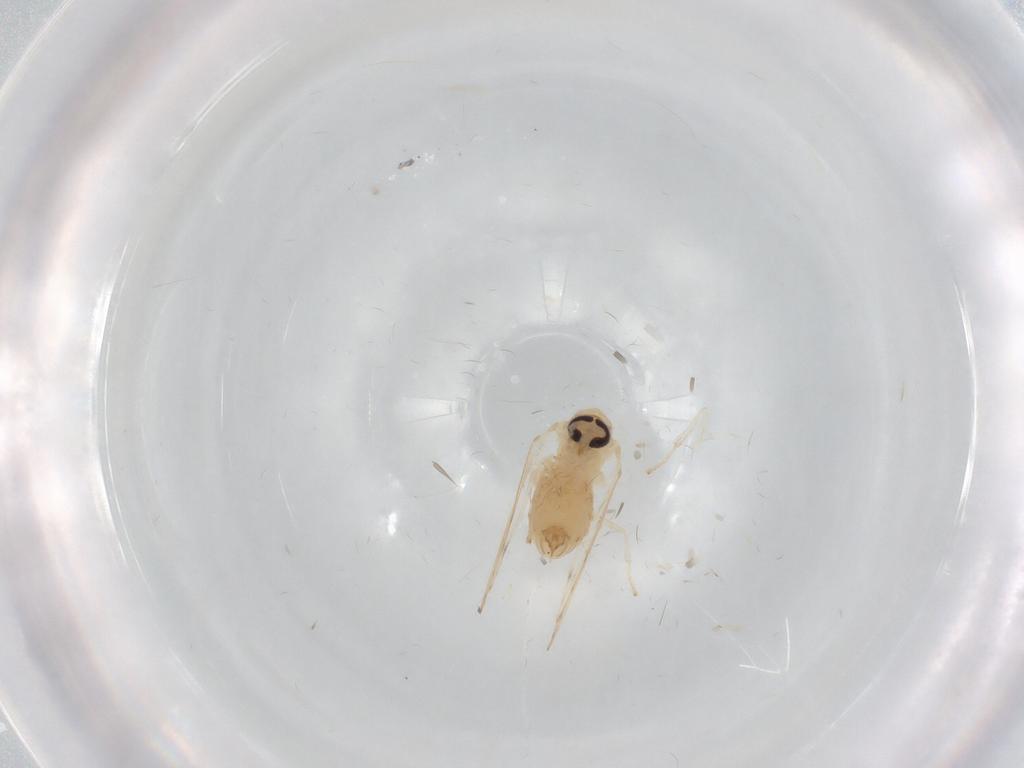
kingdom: Animalia
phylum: Arthropoda
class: Insecta
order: Diptera
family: Psychodidae
